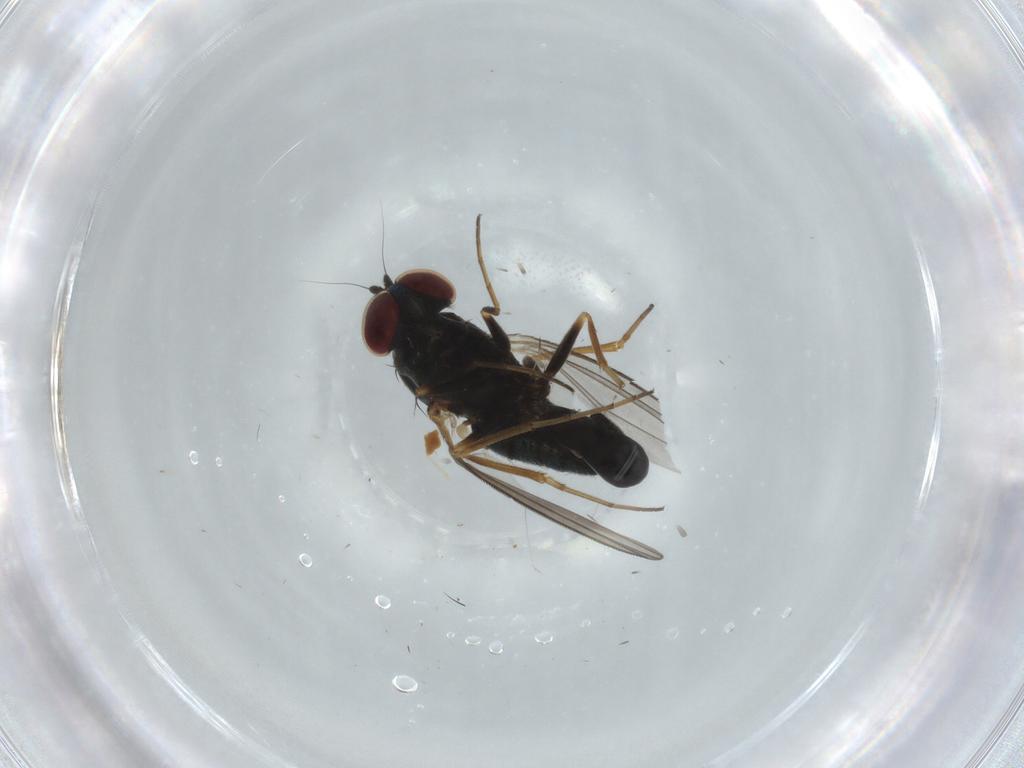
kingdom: Animalia
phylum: Arthropoda
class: Insecta
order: Diptera
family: Dolichopodidae
